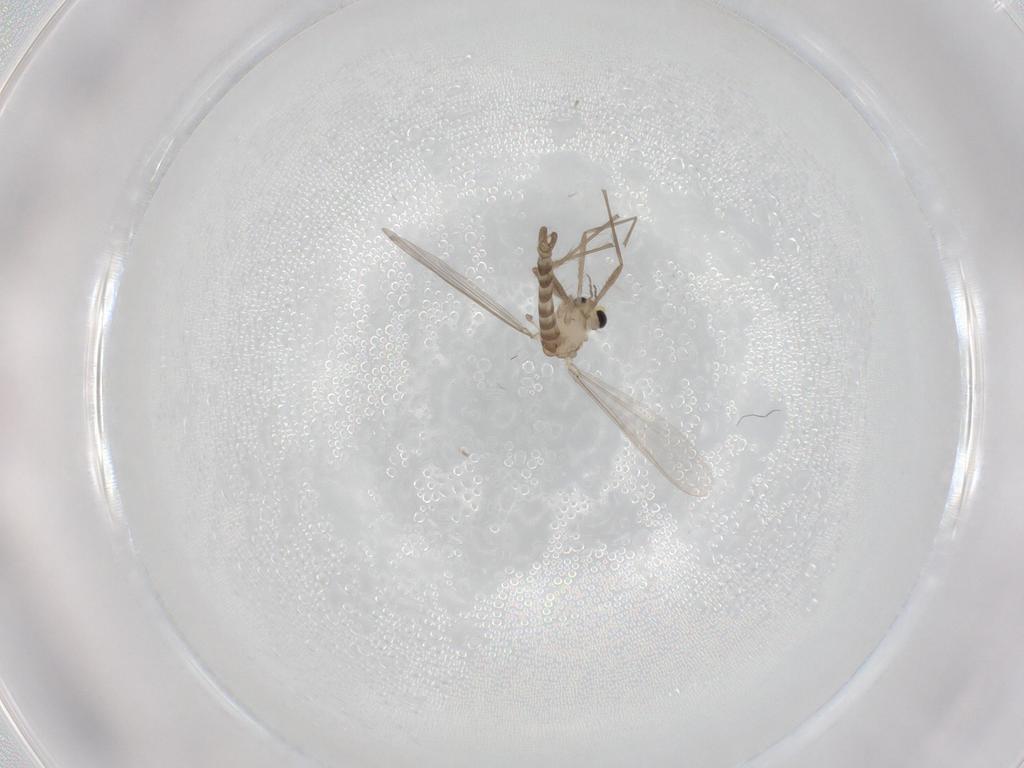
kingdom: Animalia
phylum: Arthropoda
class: Insecta
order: Diptera
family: Chironomidae
